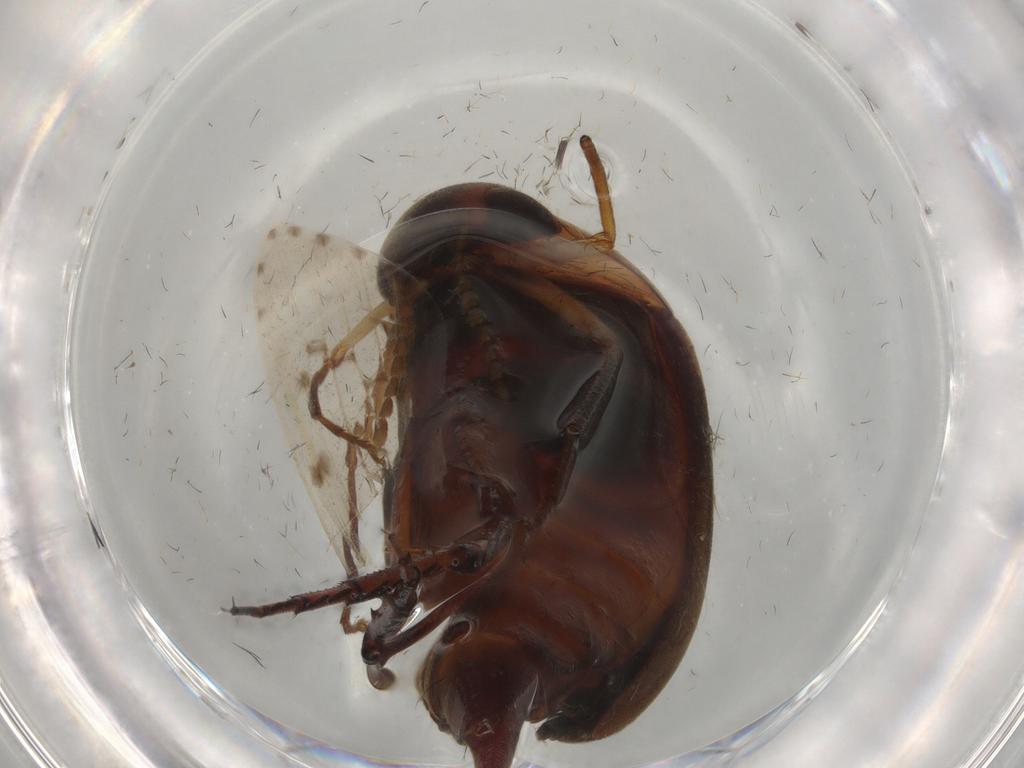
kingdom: Animalia
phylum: Arthropoda
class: Insecta
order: Coleoptera
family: Mordellidae
